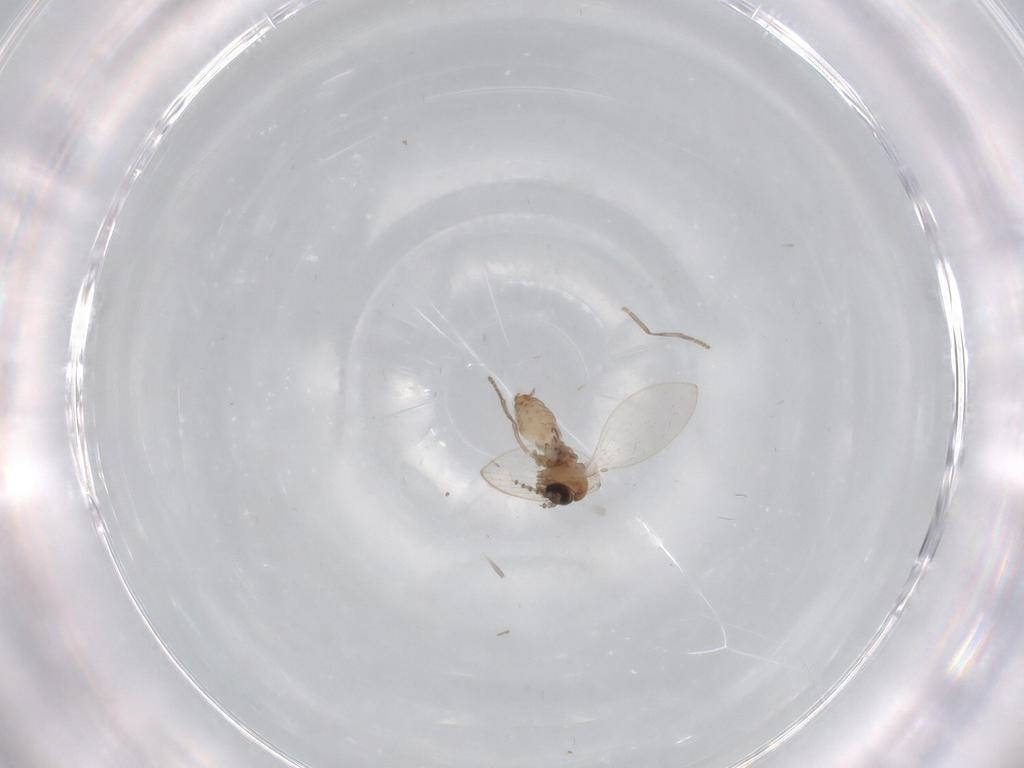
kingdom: Animalia
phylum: Arthropoda
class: Insecta
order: Diptera
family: Psychodidae
